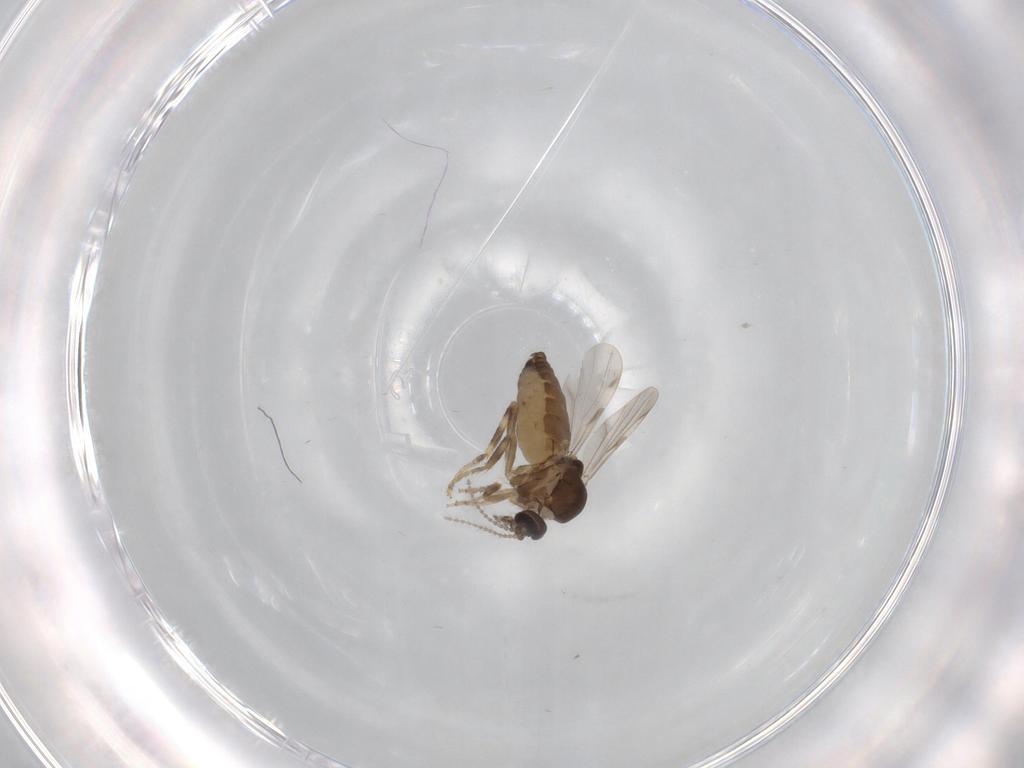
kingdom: Animalia
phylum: Arthropoda
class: Insecta
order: Diptera
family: Ceratopogonidae
